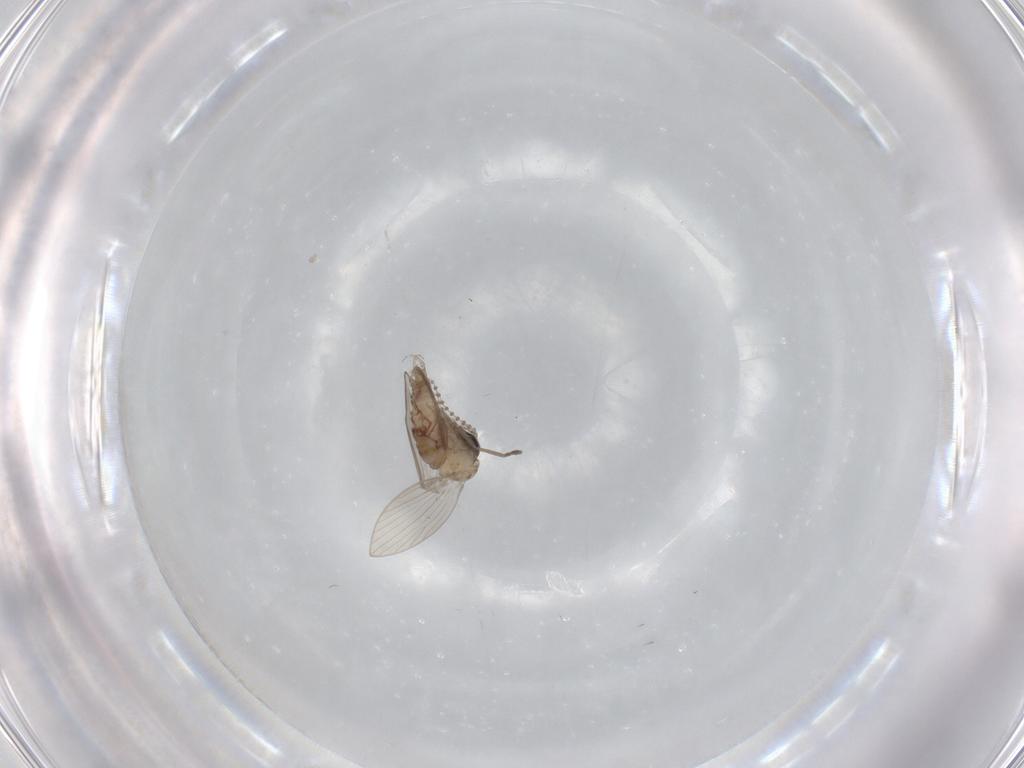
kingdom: Animalia
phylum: Arthropoda
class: Insecta
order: Diptera
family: Psychodidae
